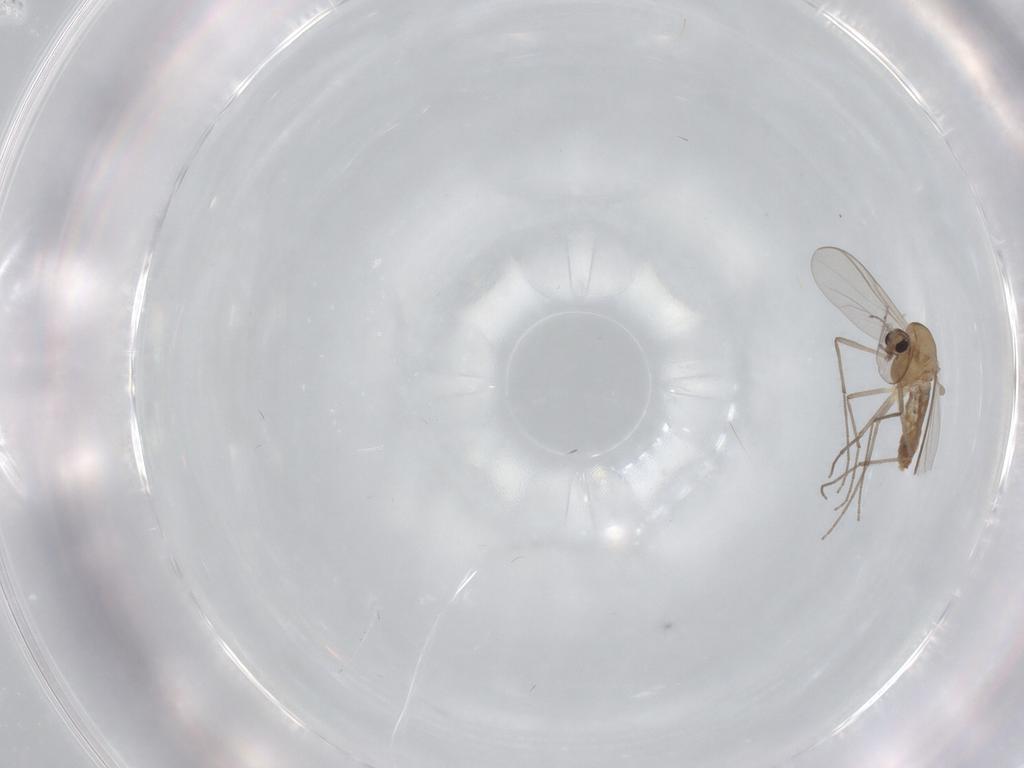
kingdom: Animalia
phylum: Arthropoda
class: Insecta
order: Diptera
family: Chironomidae
